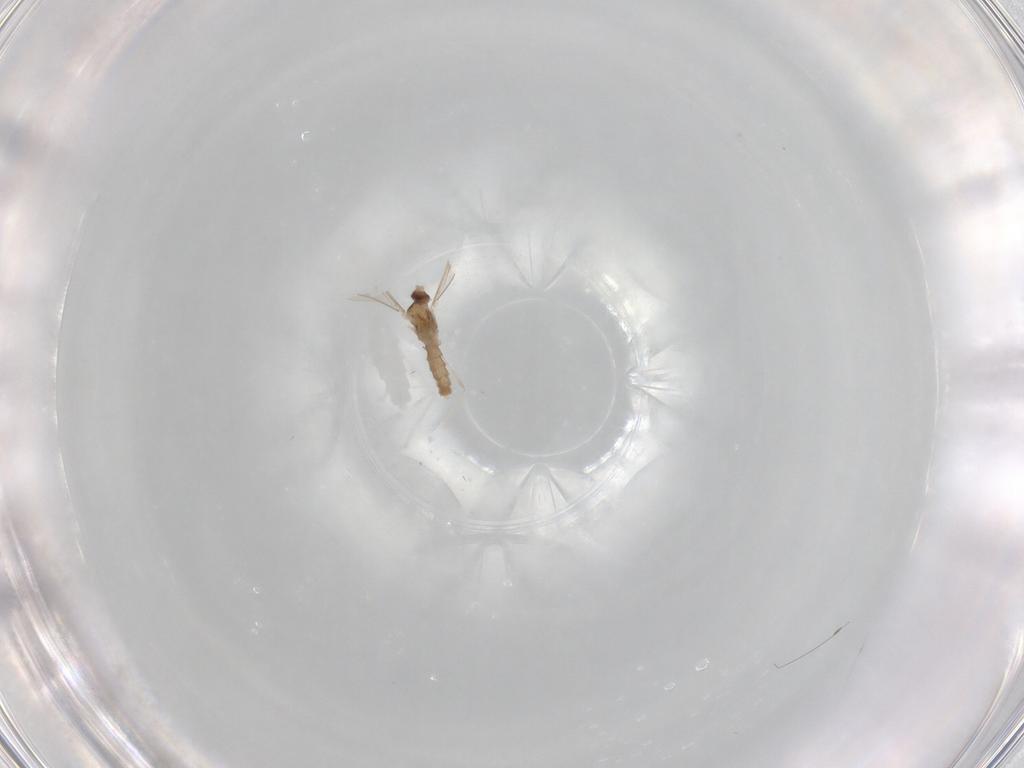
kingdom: Animalia
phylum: Arthropoda
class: Insecta
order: Diptera
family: Cecidomyiidae
